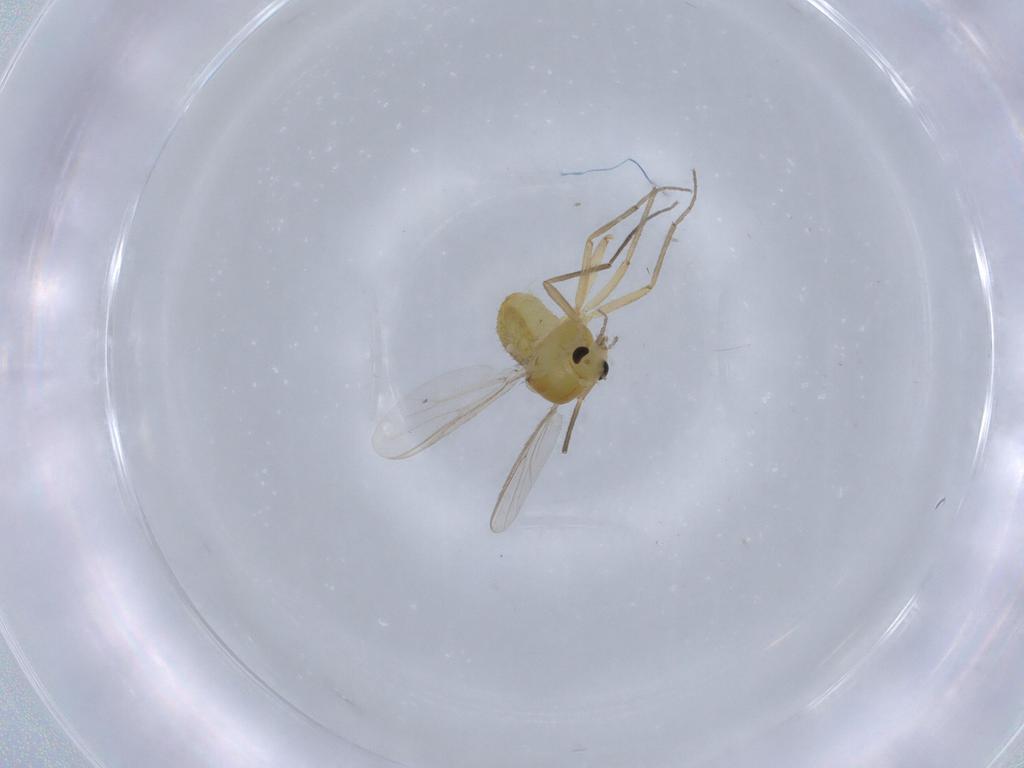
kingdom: Animalia
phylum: Arthropoda
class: Insecta
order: Diptera
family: Chironomidae
